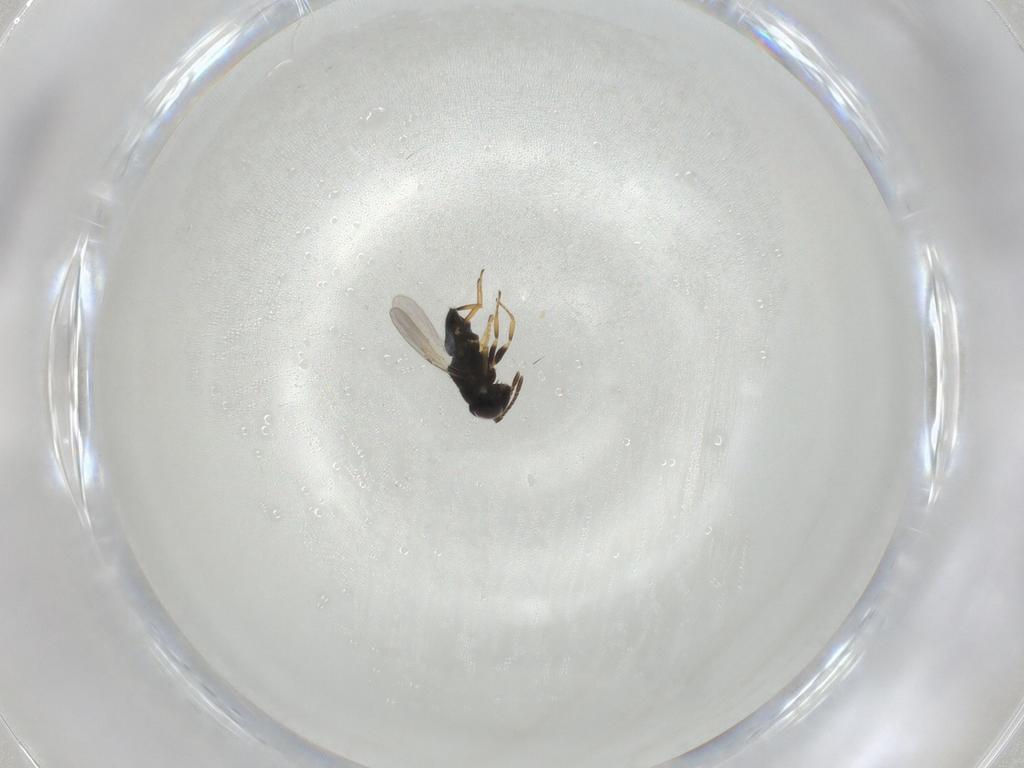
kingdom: Animalia
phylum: Arthropoda
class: Insecta
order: Hymenoptera
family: Encyrtidae
